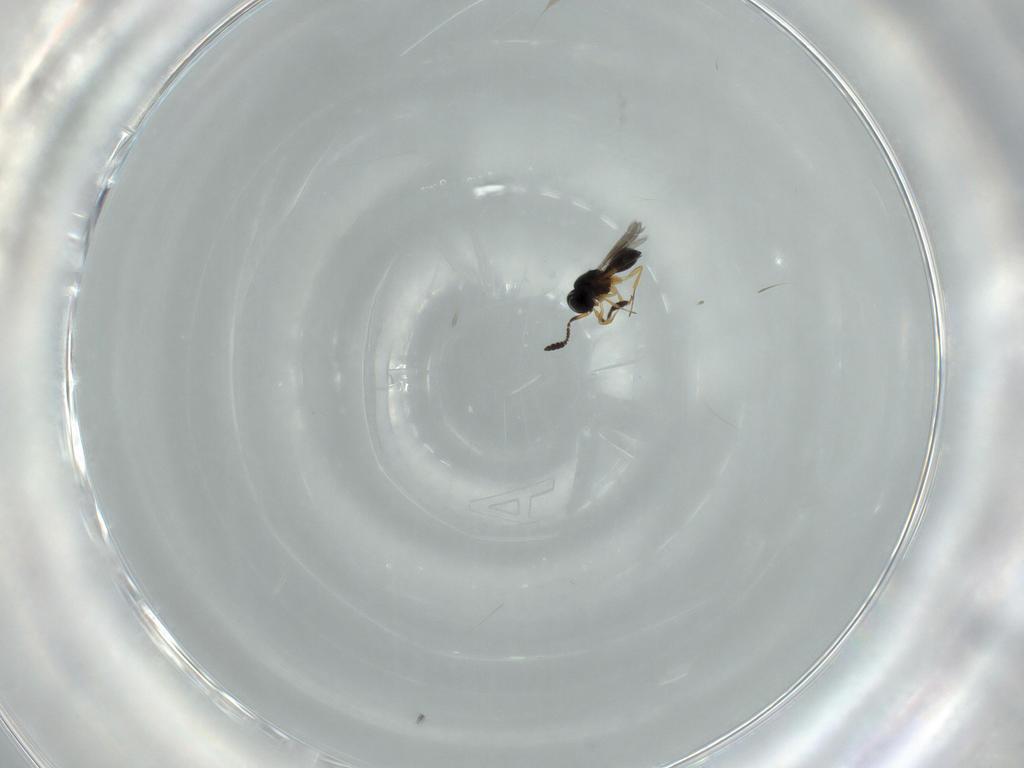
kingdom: Animalia
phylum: Arthropoda
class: Insecta
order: Hymenoptera
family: Scelionidae
